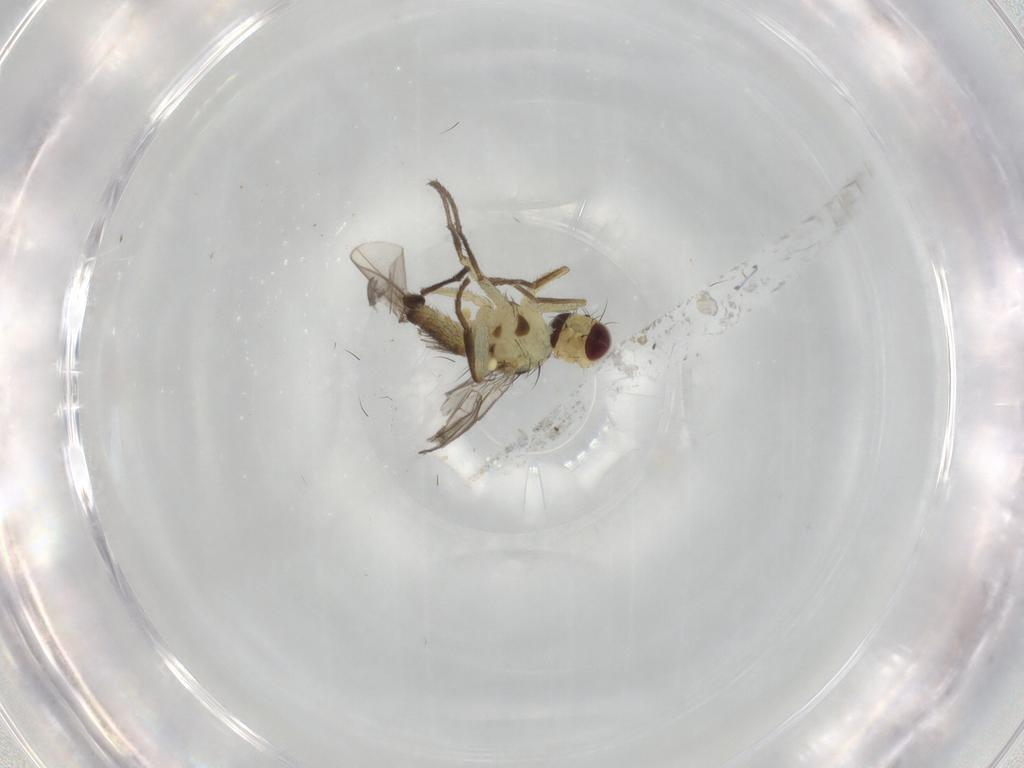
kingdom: Animalia
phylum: Arthropoda
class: Insecta
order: Diptera
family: Agromyzidae
